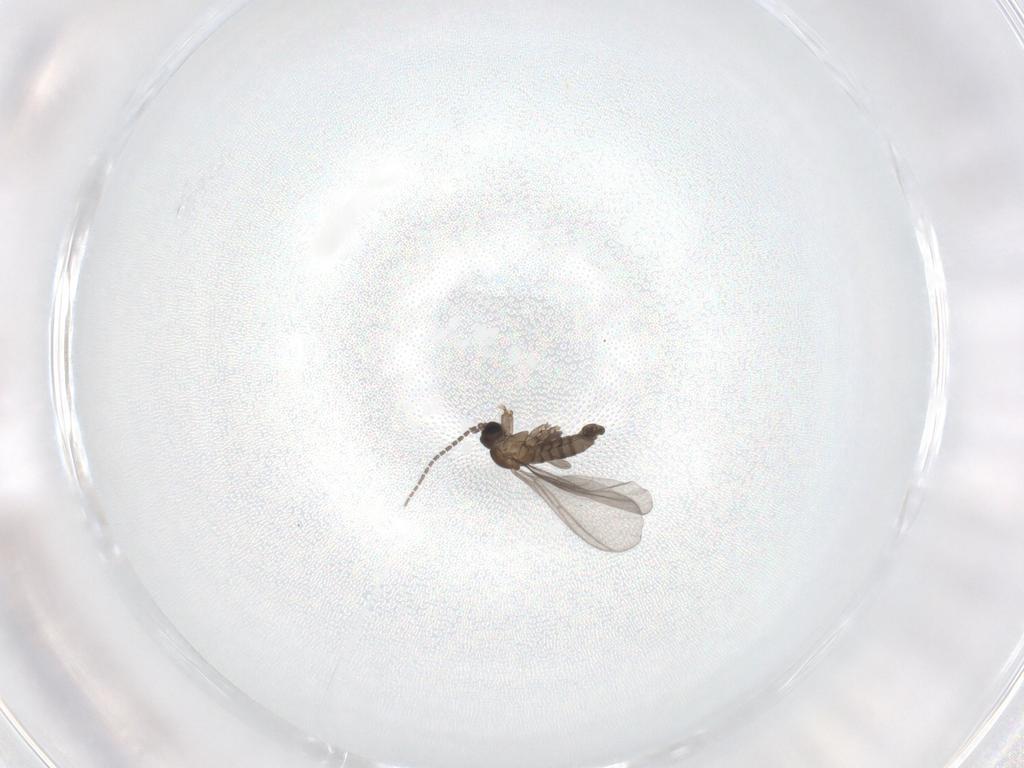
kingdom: Animalia
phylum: Arthropoda
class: Insecta
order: Diptera
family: Sciaridae
